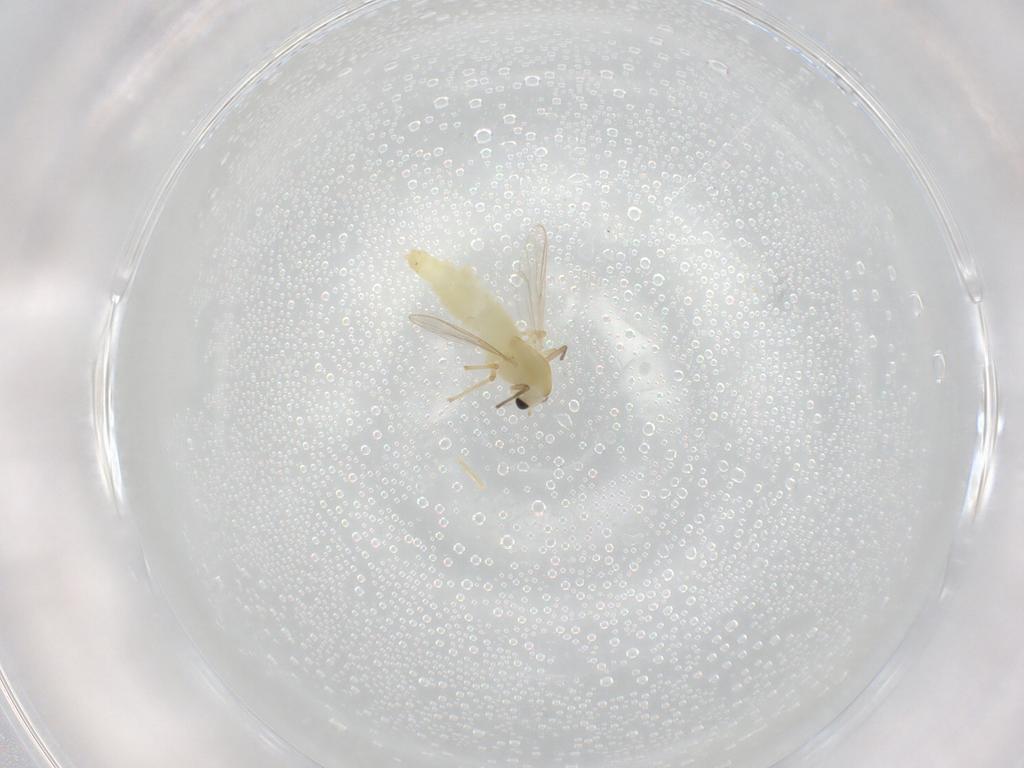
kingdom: Animalia
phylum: Arthropoda
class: Insecta
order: Diptera
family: Chironomidae
